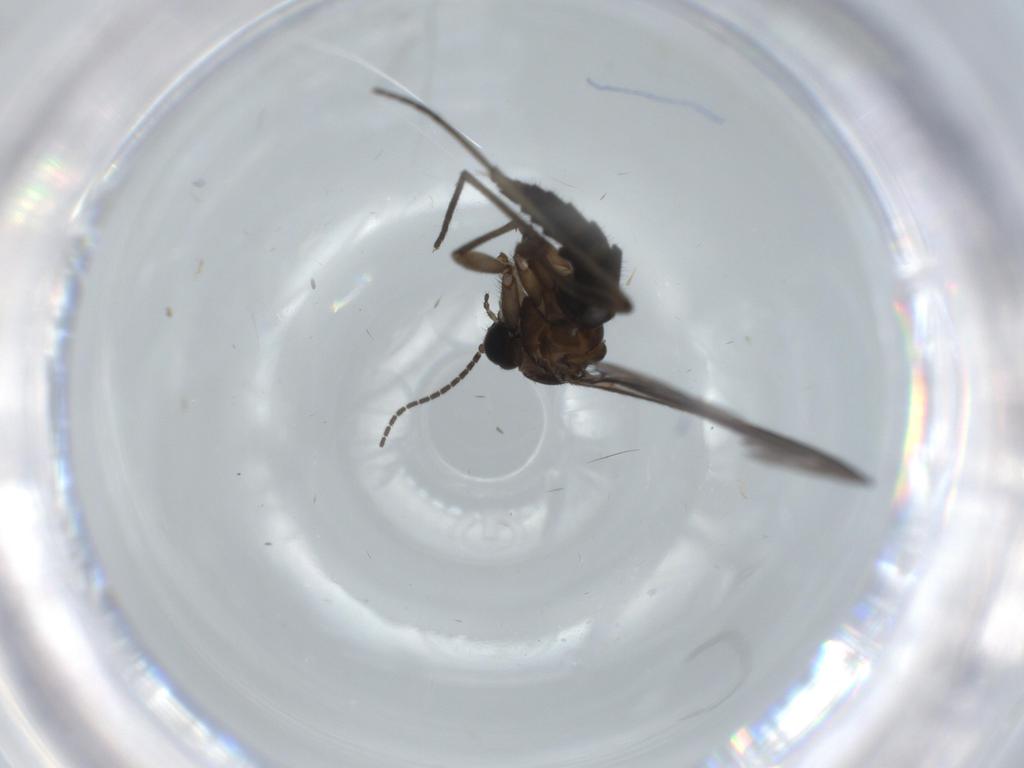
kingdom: Animalia
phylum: Arthropoda
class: Insecta
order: Diptera
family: Sciaridae
